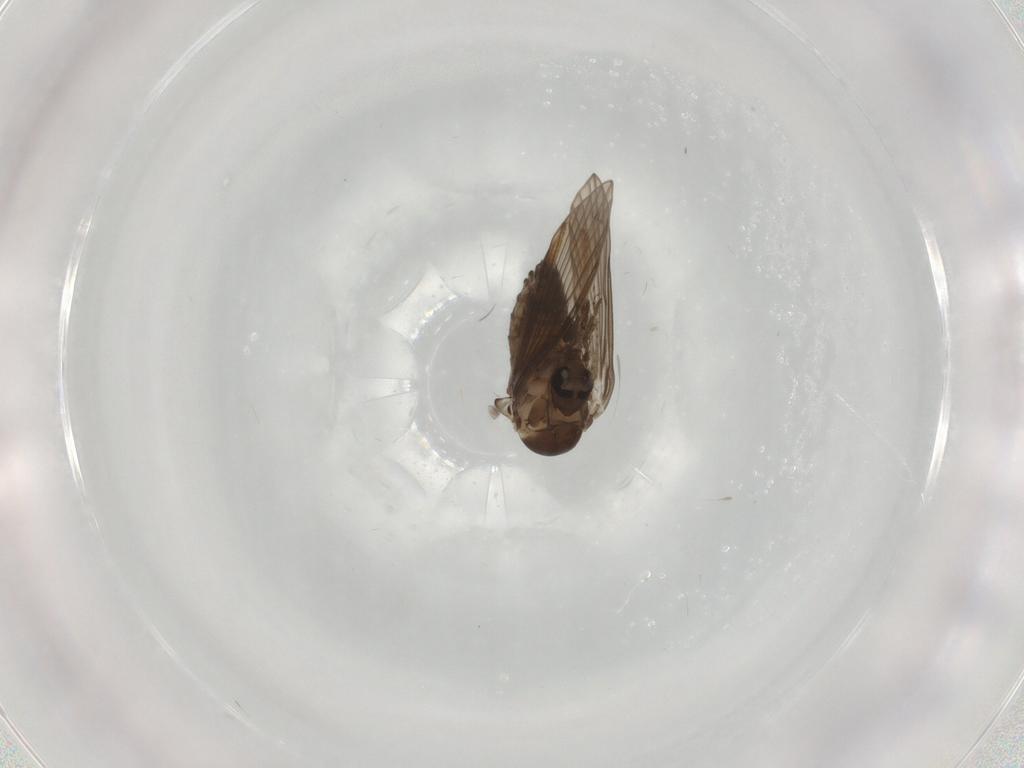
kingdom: Animalia
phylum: Arthropoda
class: Insecta
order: Diptera
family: Psychodidae
